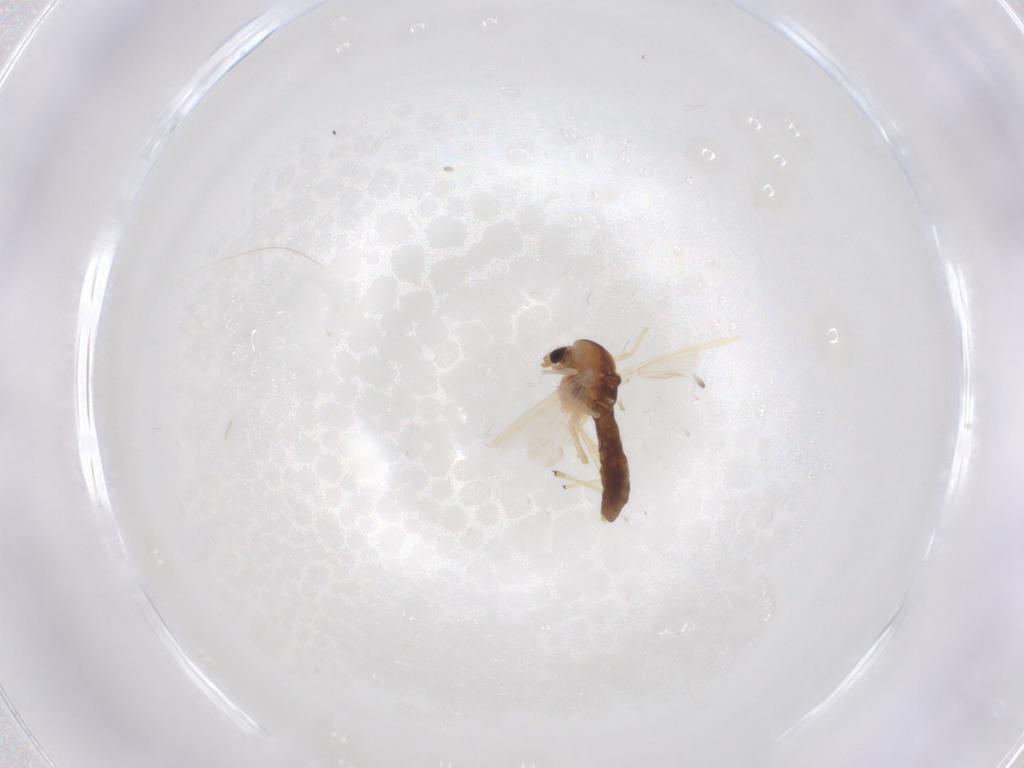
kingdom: Animalia
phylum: Arthropoda
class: Insecta
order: Diptera
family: Chironomidae
